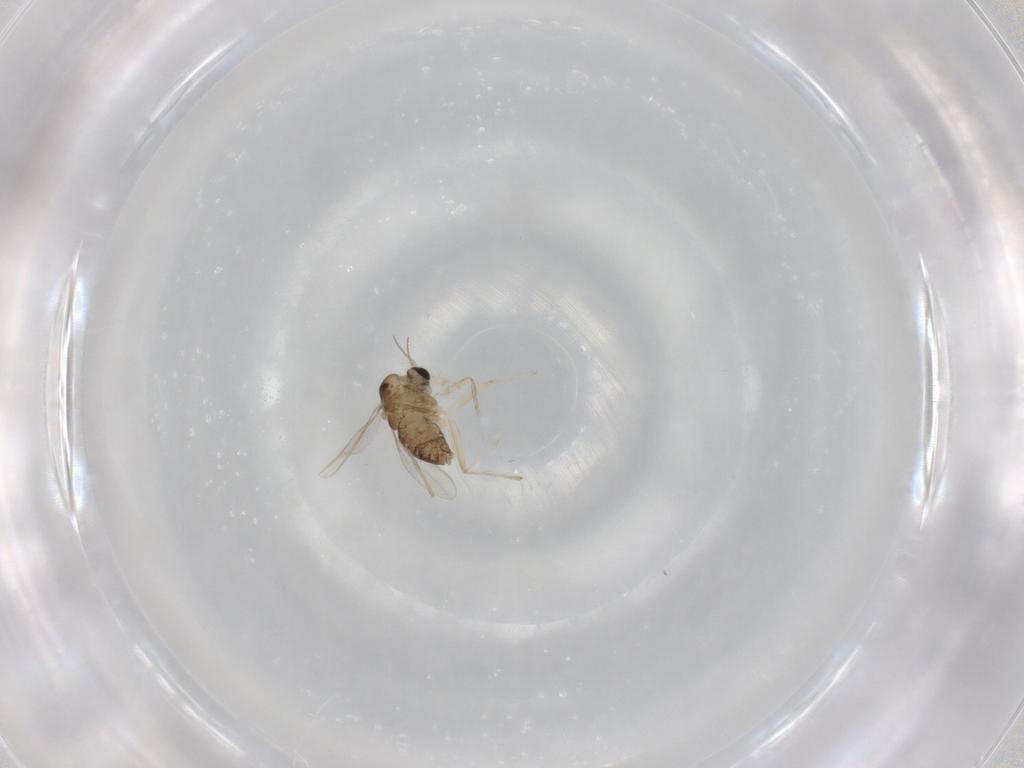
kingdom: Animalia
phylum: Arthropoda
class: Insecta
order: Diptera
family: Chironomidae
